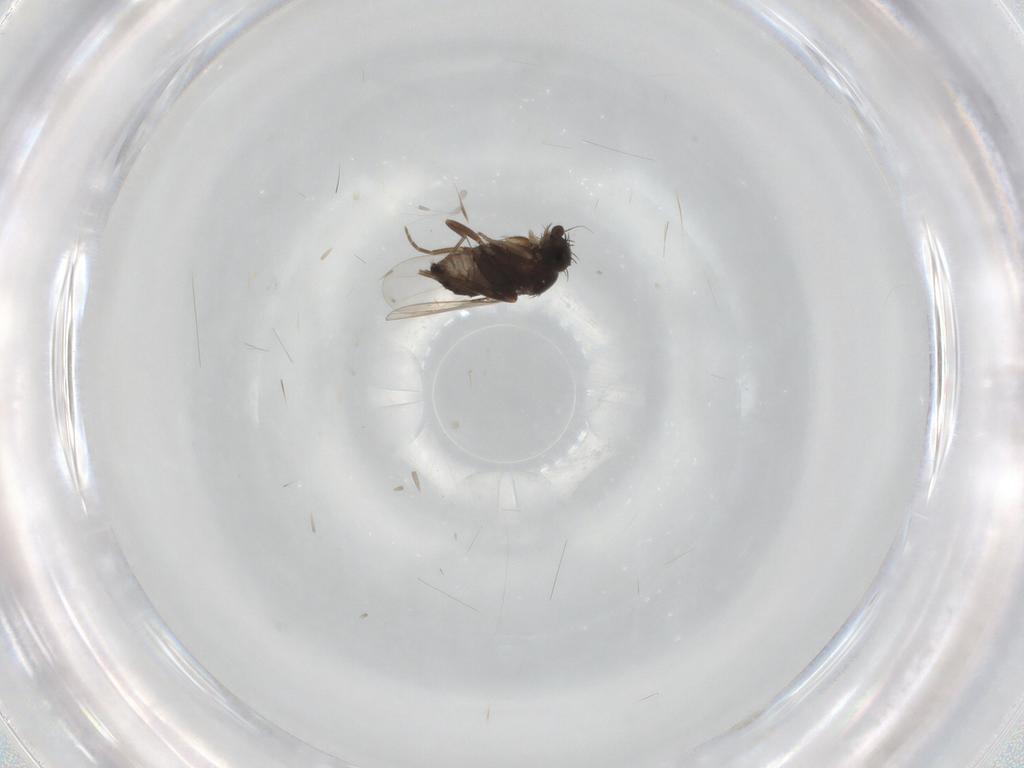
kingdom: Animalia
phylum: Arthropoda
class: Insecta
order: Diptera
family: Phoridae
